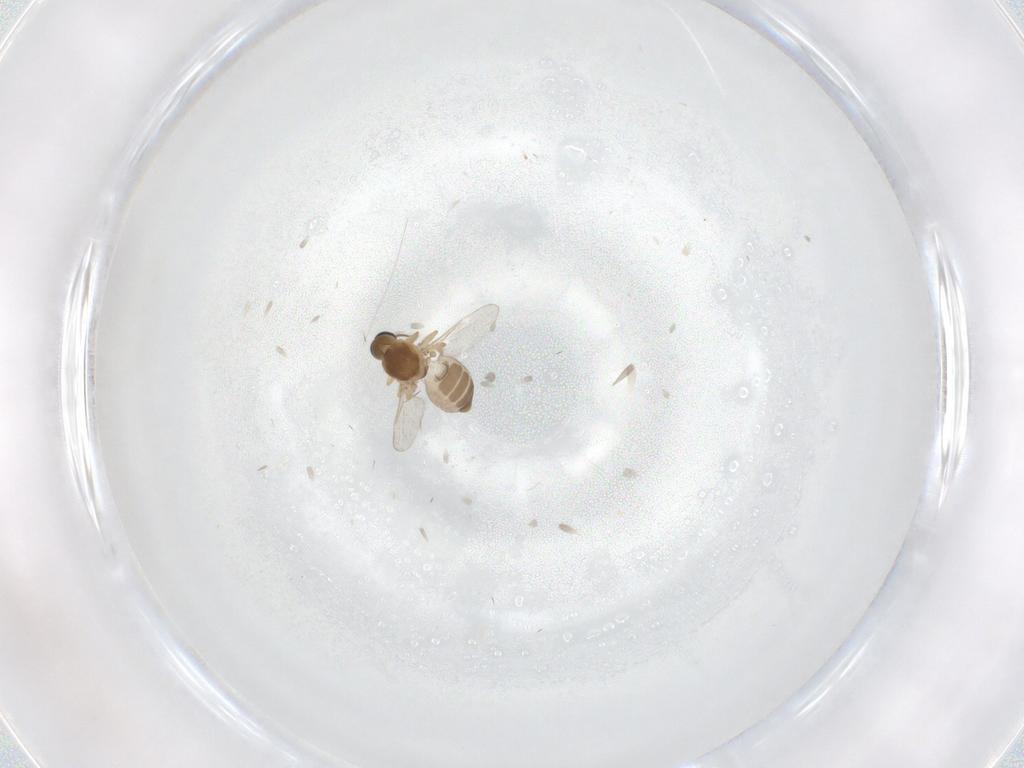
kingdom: Animalia
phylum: Arthropoda
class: Insecta
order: Diptera
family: Ceratopogonidae
